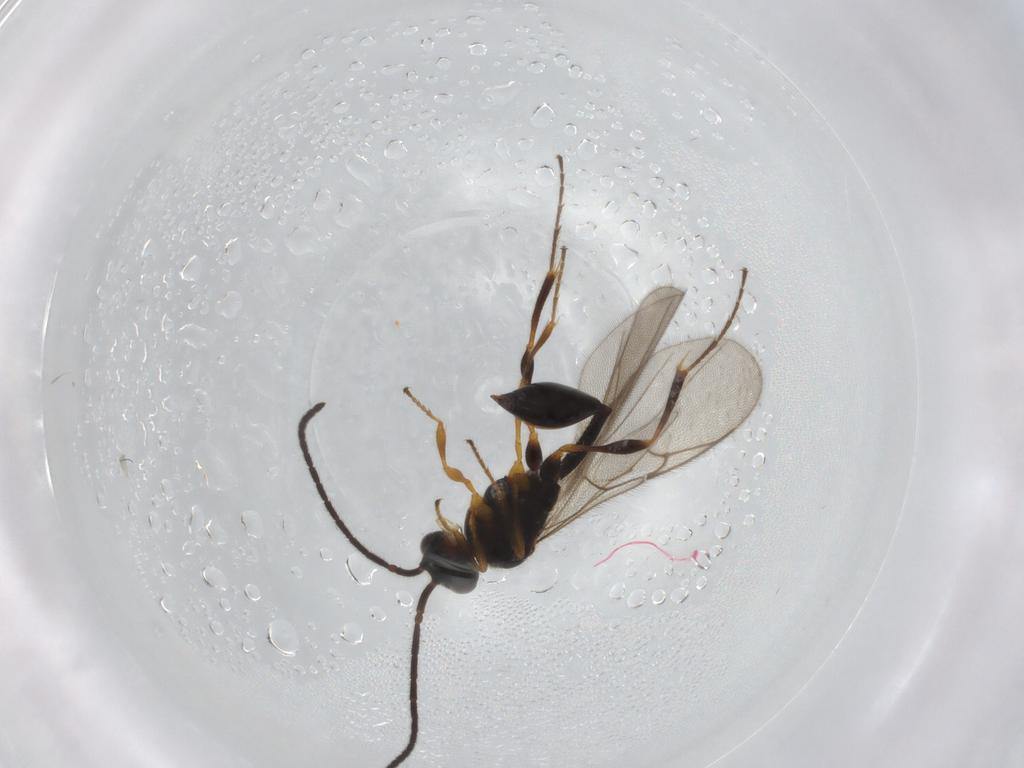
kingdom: Animalia
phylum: Arthropoda
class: Insecta
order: Hymenoptera
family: Diapriidae
